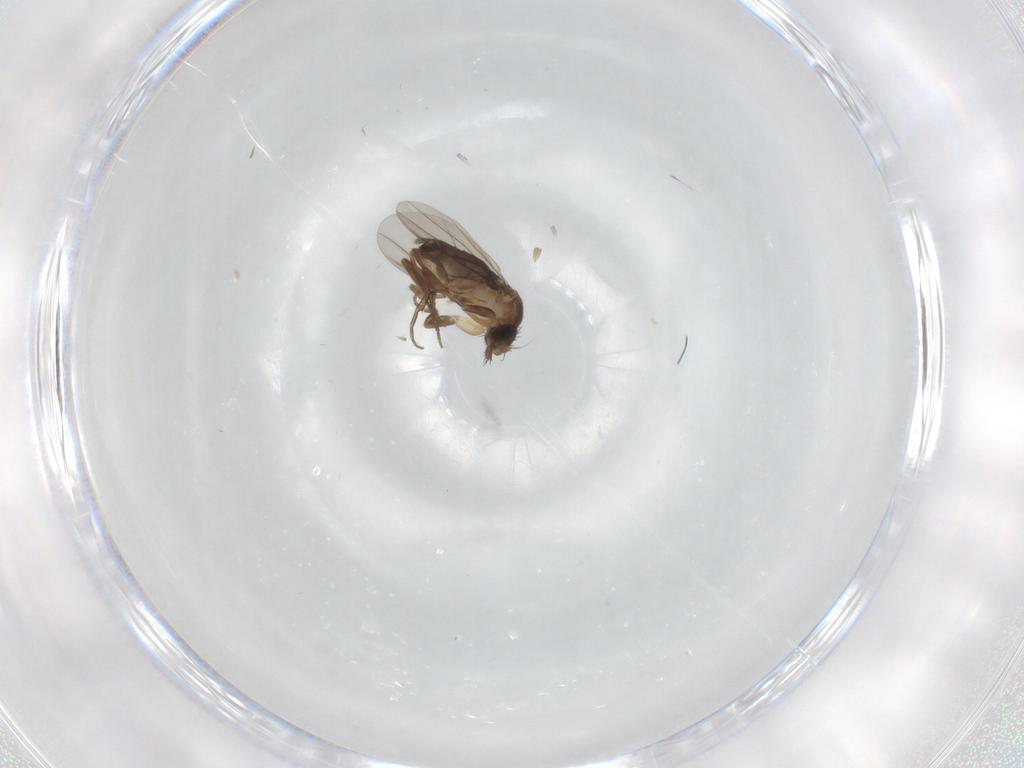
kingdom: Animalia
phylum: Arthropoda
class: Insecta
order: Diptera
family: Phoridae
